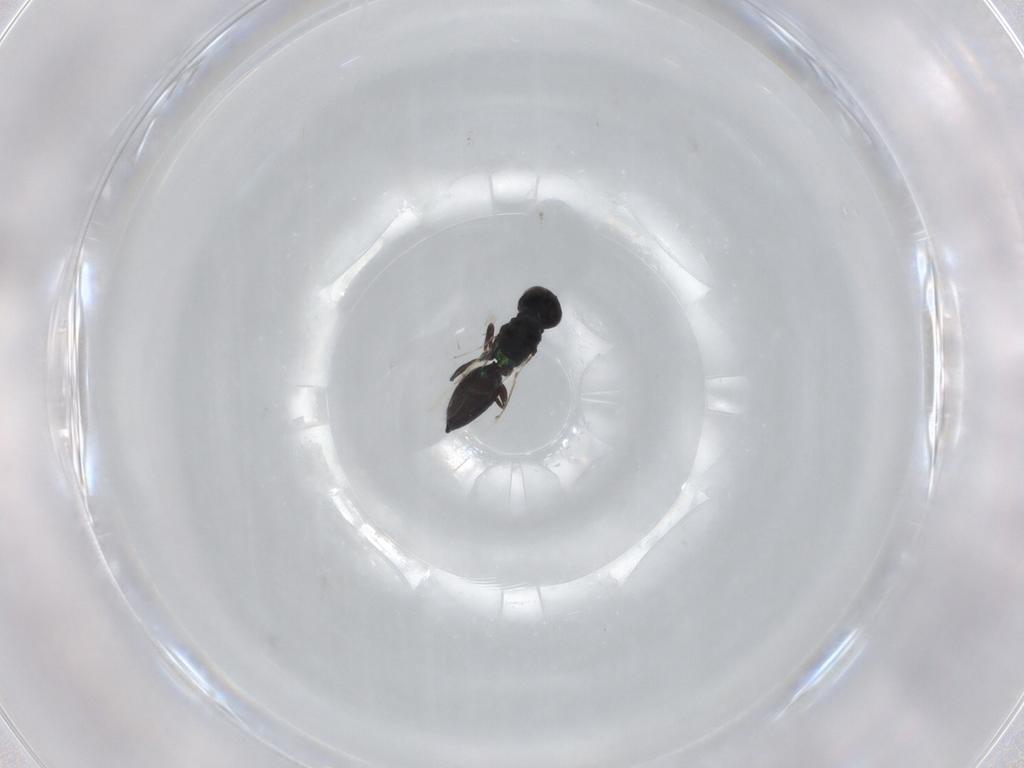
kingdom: Animalia
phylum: Arthropoda
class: Insecta
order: Hymenoptera
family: Eulophidae
